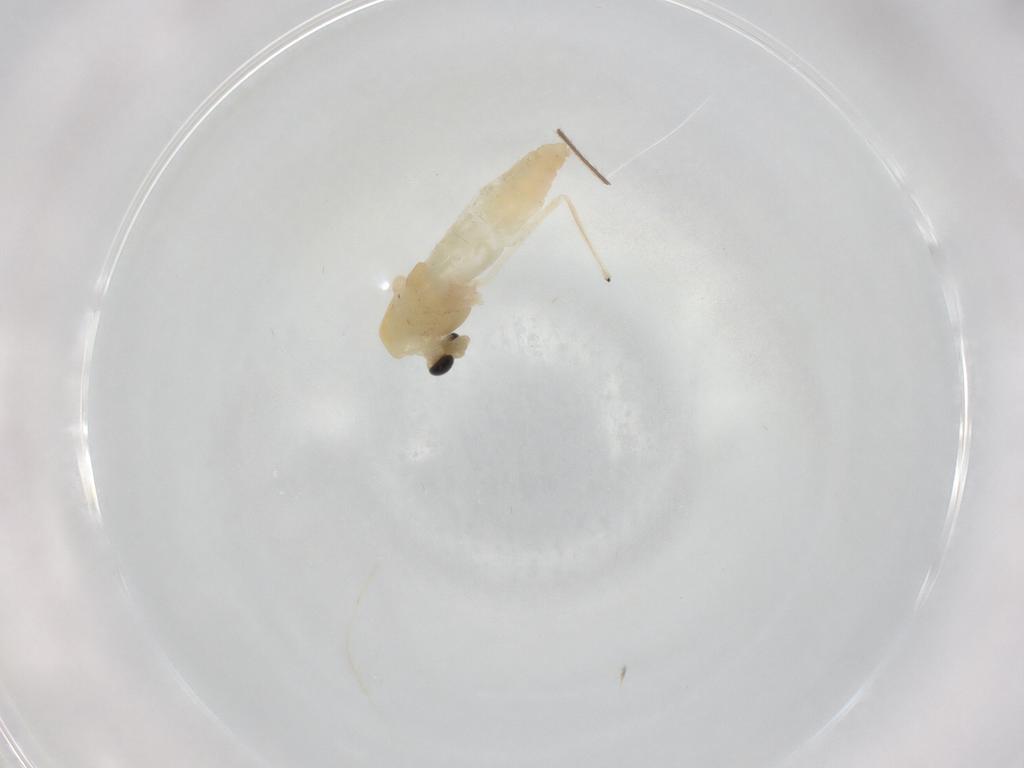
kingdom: Animalia
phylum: Arthropoda
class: Insecta
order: Diptera
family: Chironomidae
